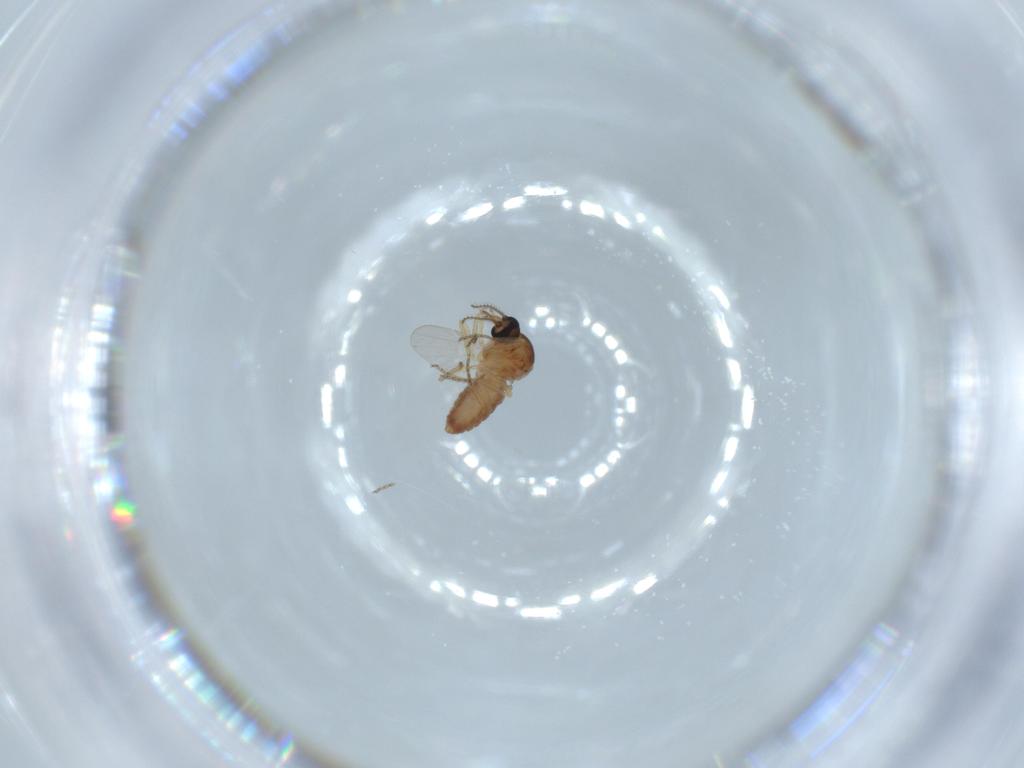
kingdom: Animalia
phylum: Arthropoda
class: Insecta
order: Diptera
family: Ceratopogonidae
